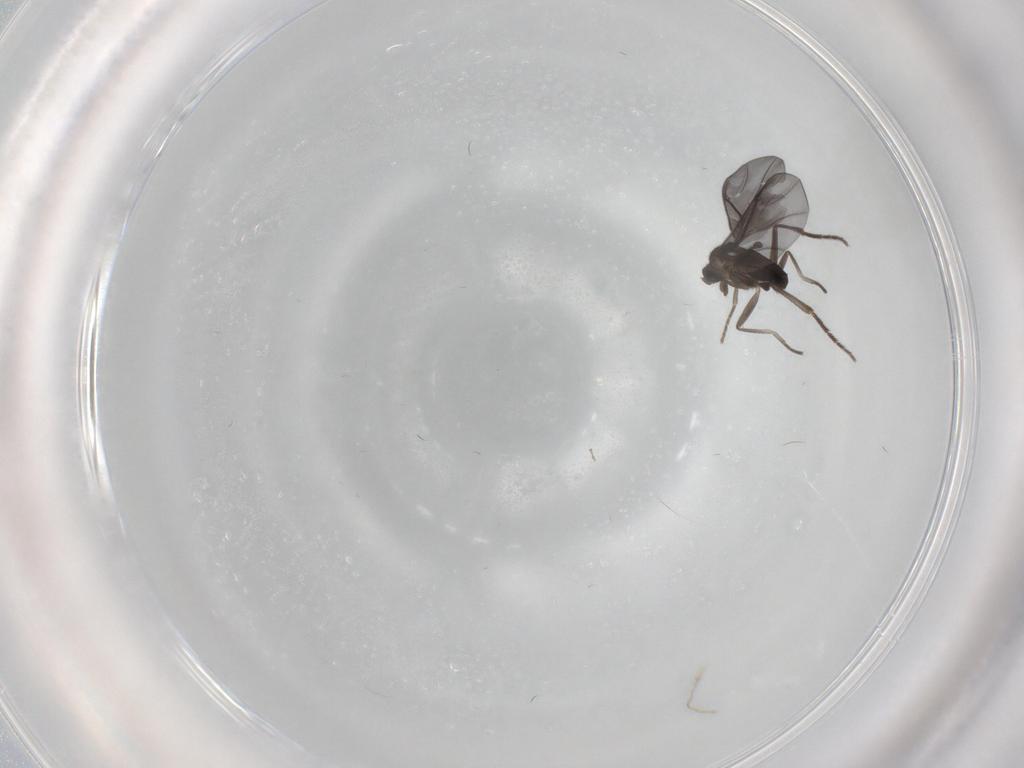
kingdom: Animalia
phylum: Arthropoda
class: Insecta
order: Diptera
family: Phoridae
